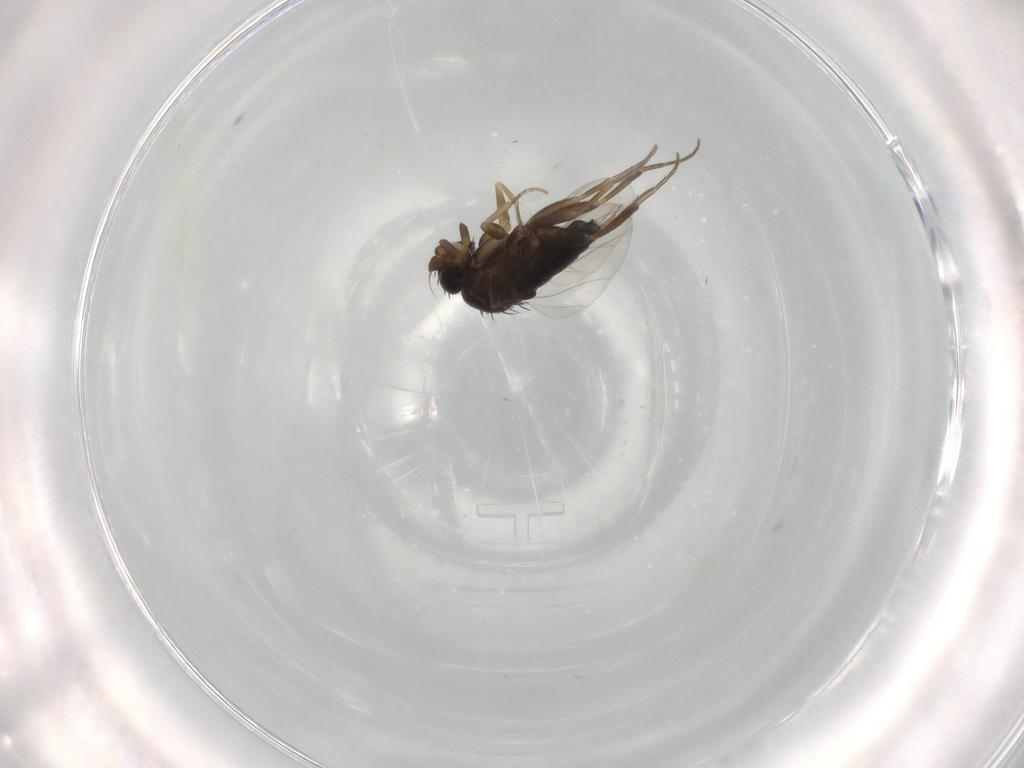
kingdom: Animalia
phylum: Arthropoda
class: Insecta
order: Diptera
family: Phoridae
